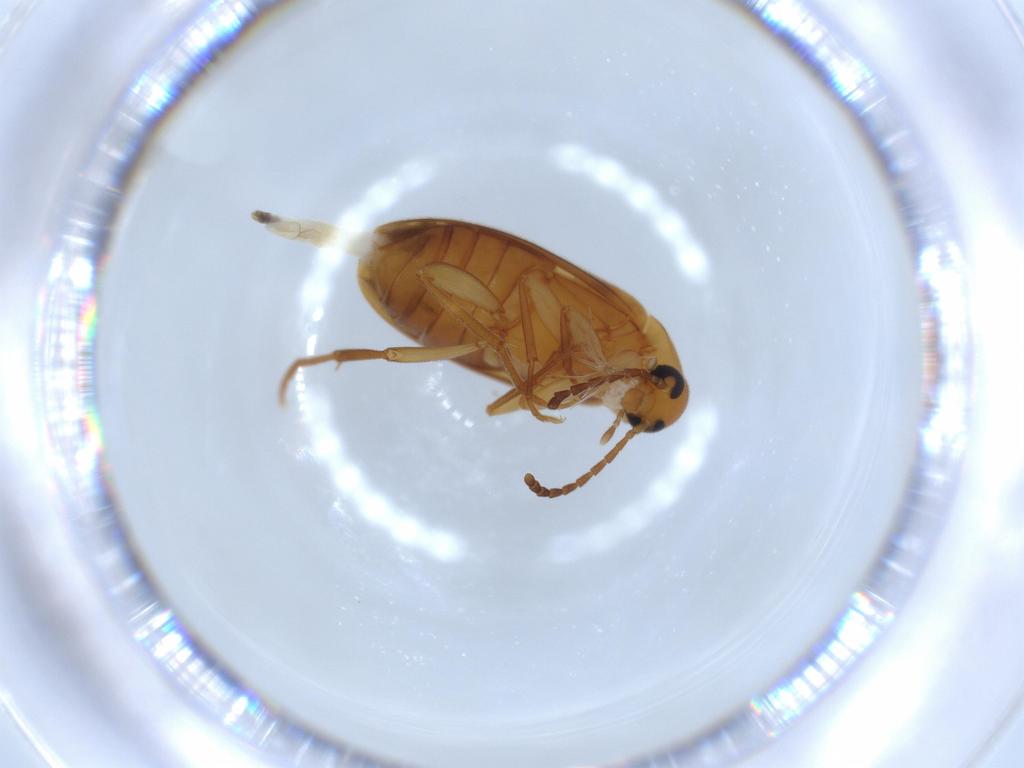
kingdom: Animalia
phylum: Arthropoda
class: Insecta
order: Coleoptera
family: Scraptiidae
